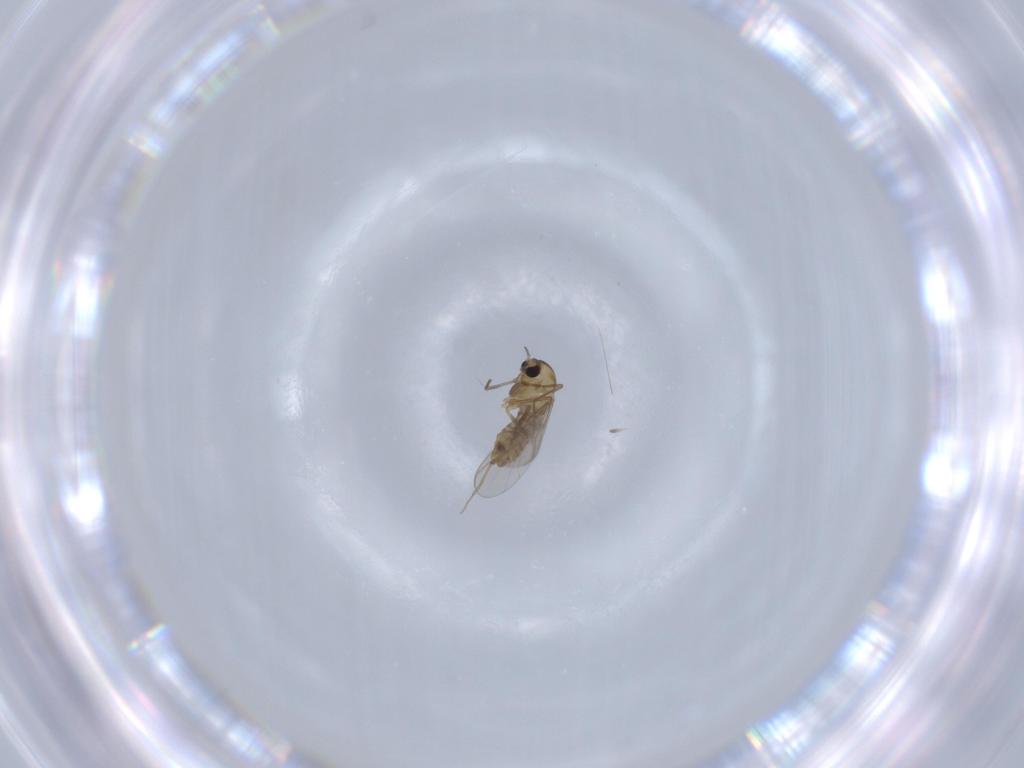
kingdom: Animalia
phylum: Arthropoda
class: Insecta
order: Diptera
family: Chironomidae
